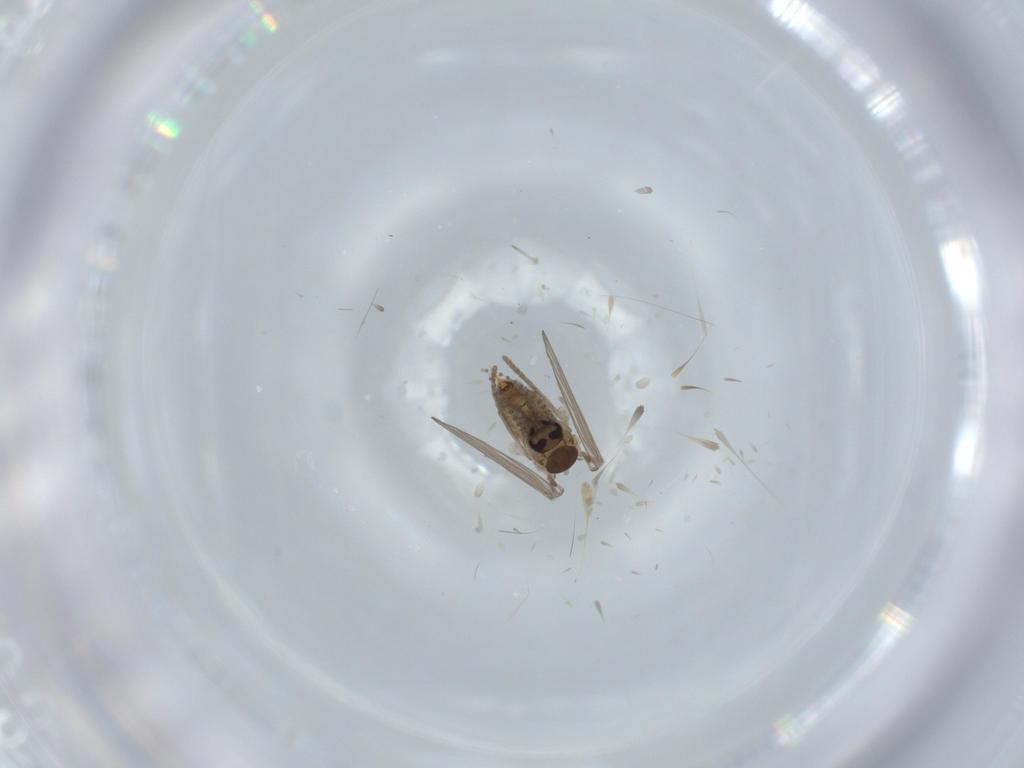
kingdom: Animalia
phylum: Arthropoda
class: Insecta
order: Diptera
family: Psychodidae
